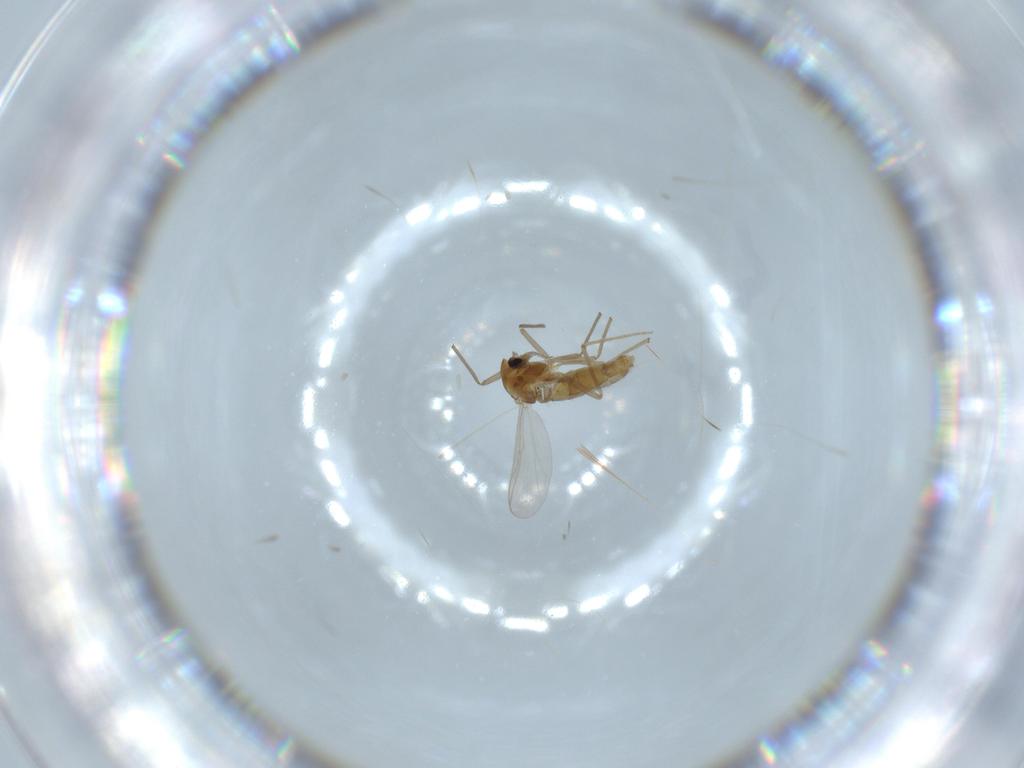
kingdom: Animalia
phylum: Arthropoda
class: Insecta
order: Diptera
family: Chironomidae
